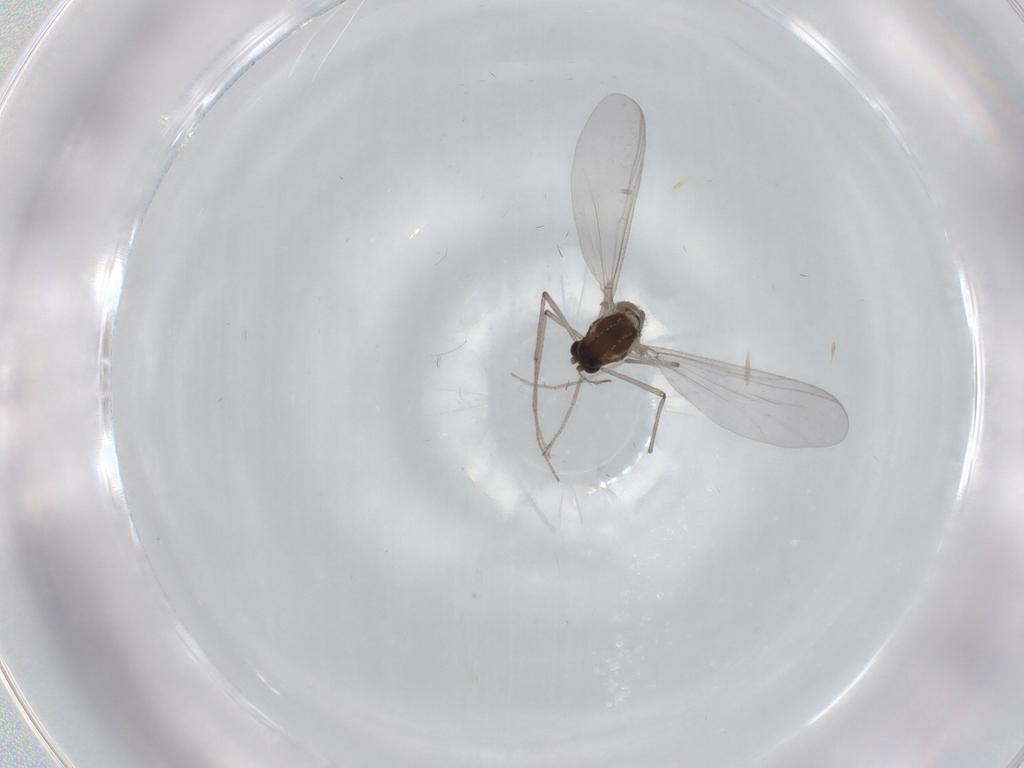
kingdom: Animalia
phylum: Arthropoda
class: Insecta
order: Diptera
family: Chironomidae
